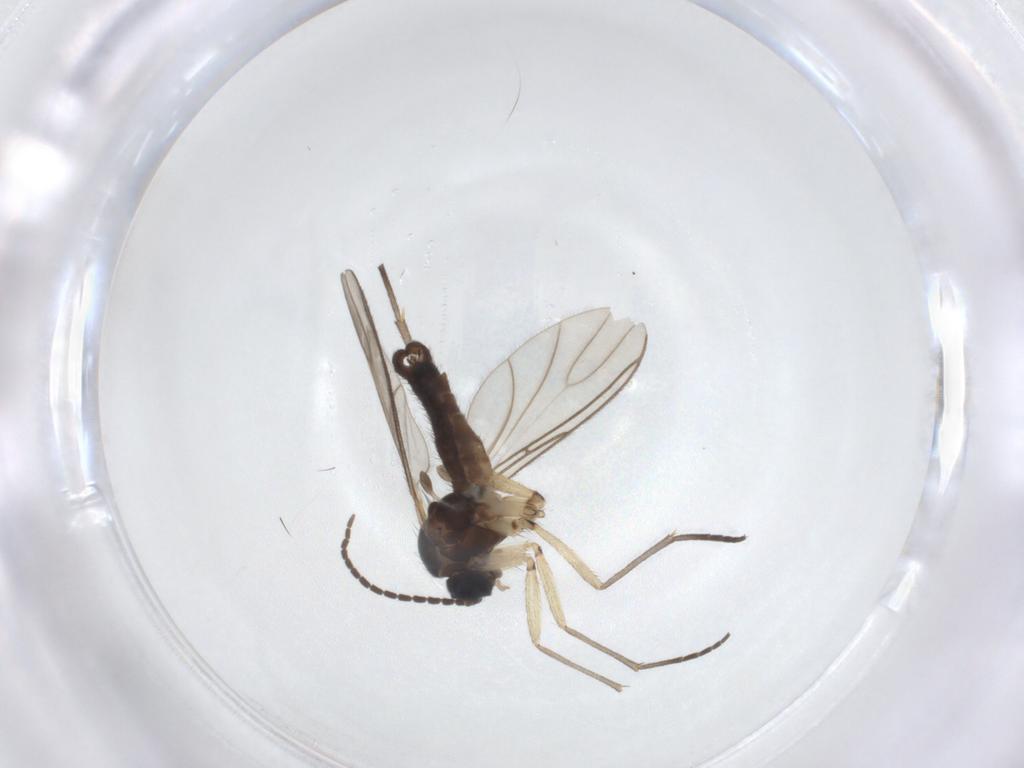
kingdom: Animalia
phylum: Arthropoda
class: Insecta
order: Diptera
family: Sciaridae
